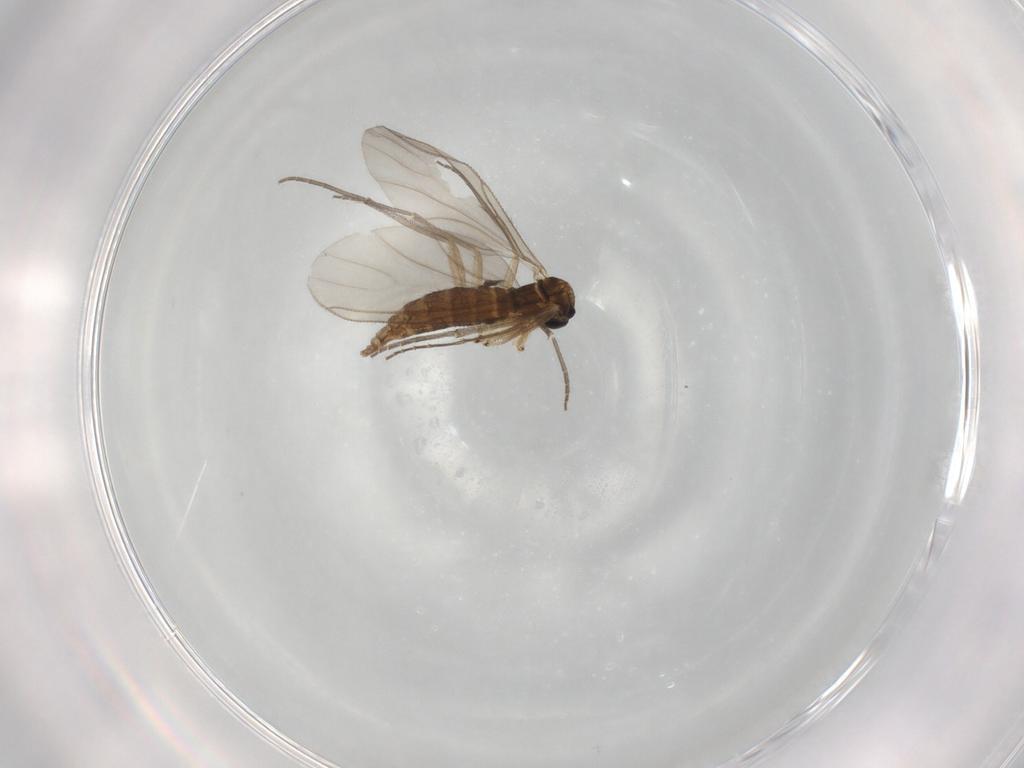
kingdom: Animalia
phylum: Arthropoda
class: Insecta
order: Diptera
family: Sciaridae
